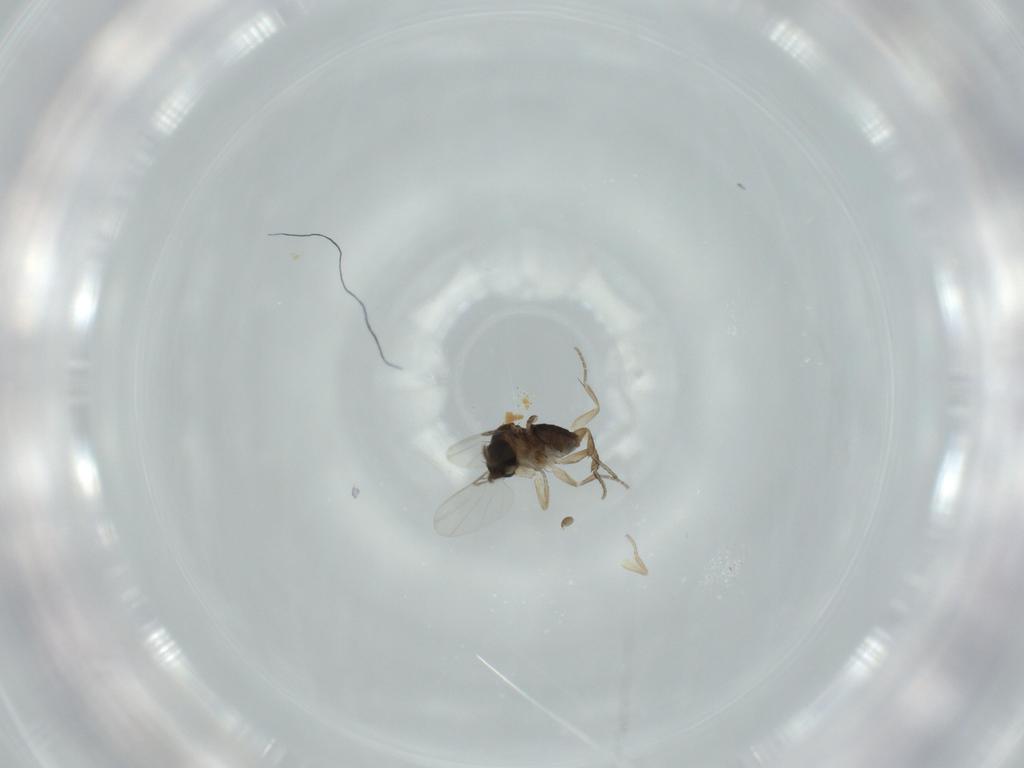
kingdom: Animalia
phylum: Arthropoda
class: Insecta
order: Diptera
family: Phoridae
